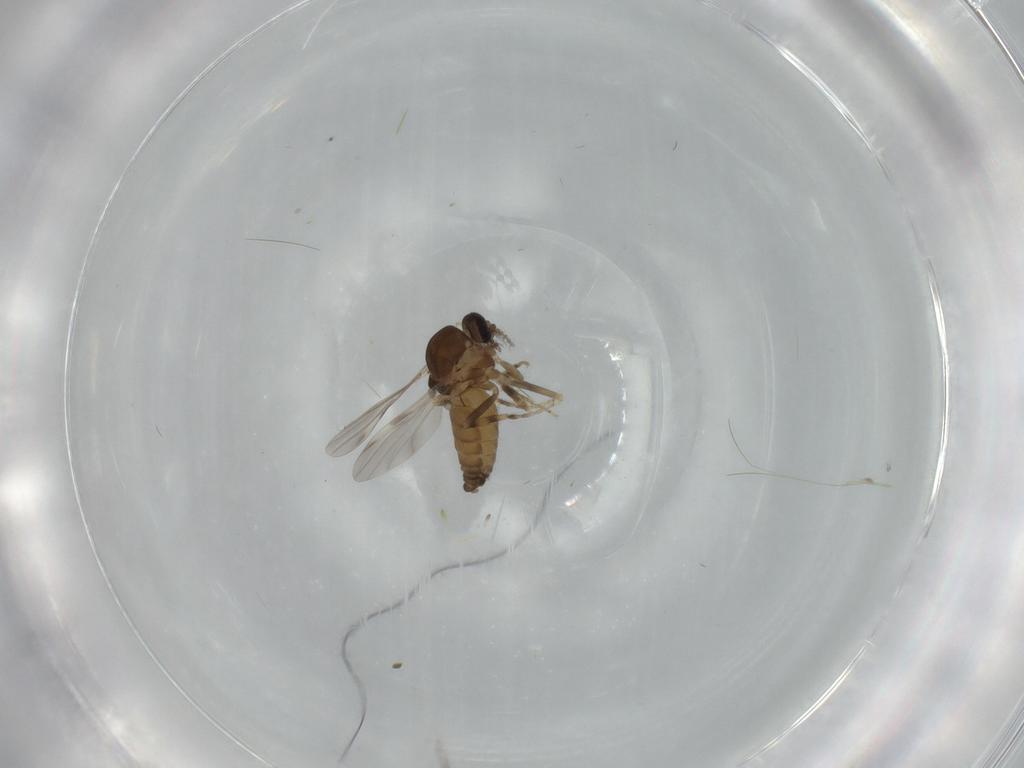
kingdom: Animalia
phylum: Arthropoda
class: Insecta
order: Diptera
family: Ceratopogonidae
